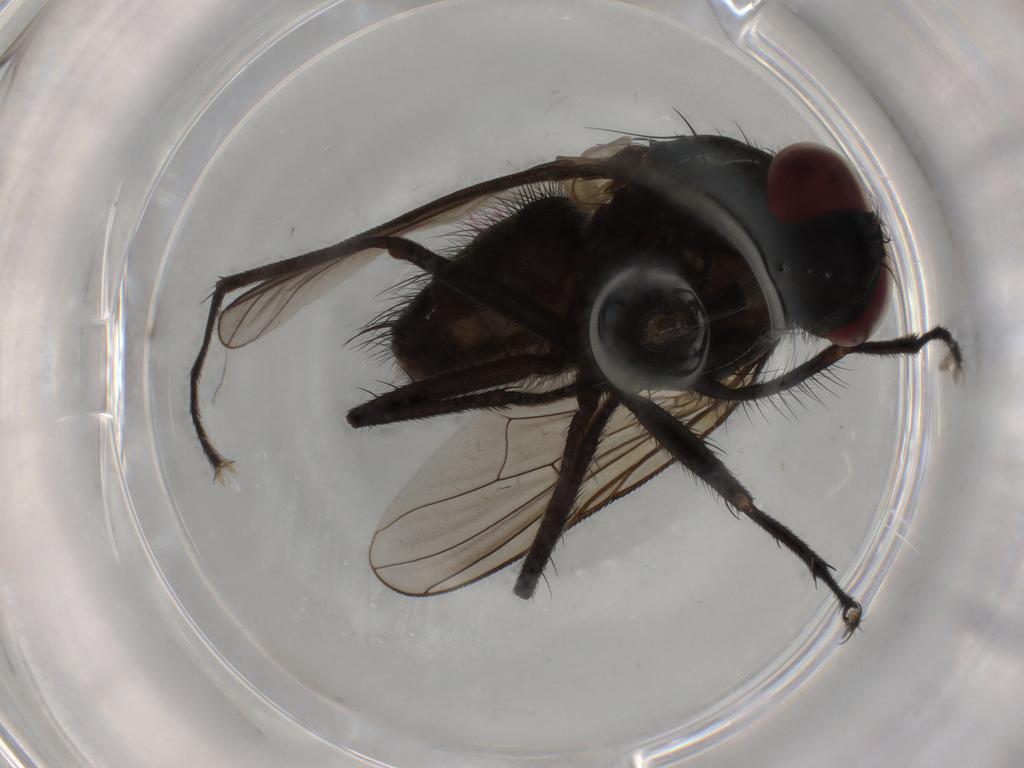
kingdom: Animalia
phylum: Arthropoda
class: Insecta
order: Diptera
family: Muscidae
